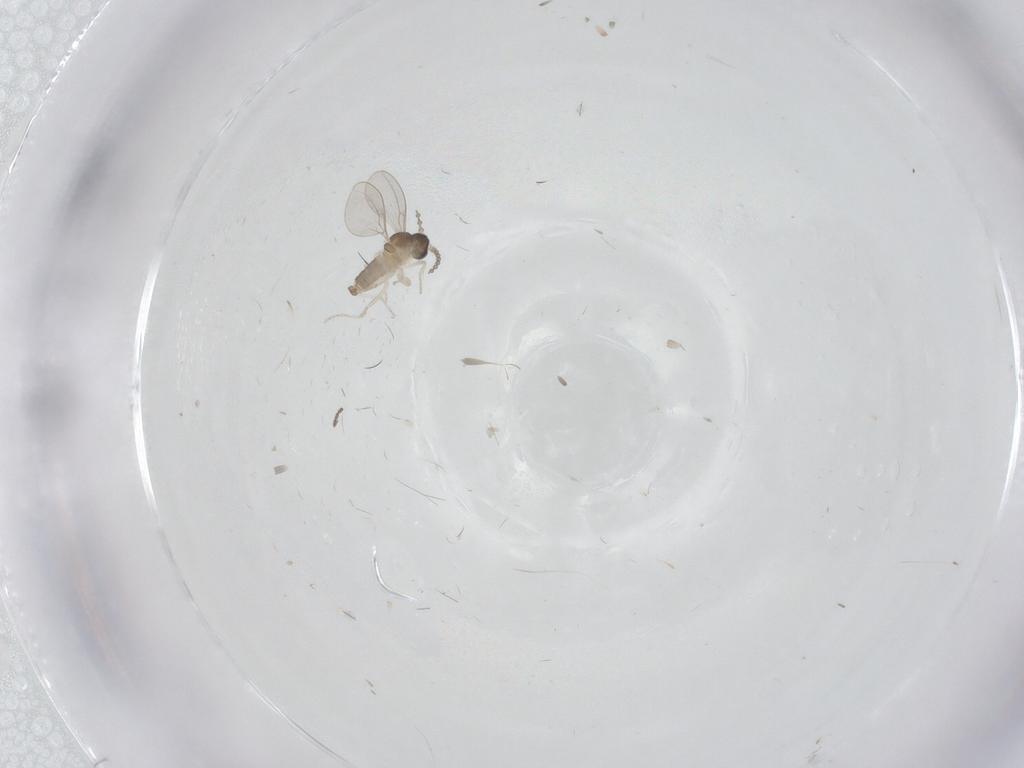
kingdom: Animalia
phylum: Arthropoda
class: Insecta
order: Diptera
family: Cecidomyiidae
